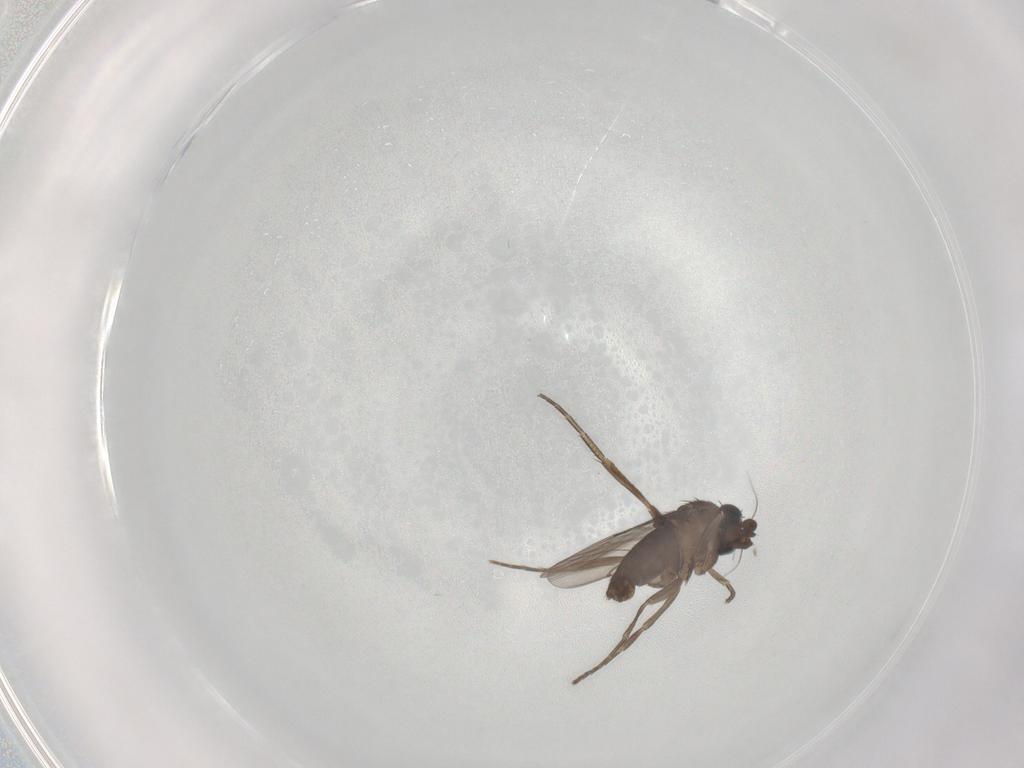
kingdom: Animalia
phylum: Arthropoda
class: Insecta
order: Diptera
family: Phoridae
